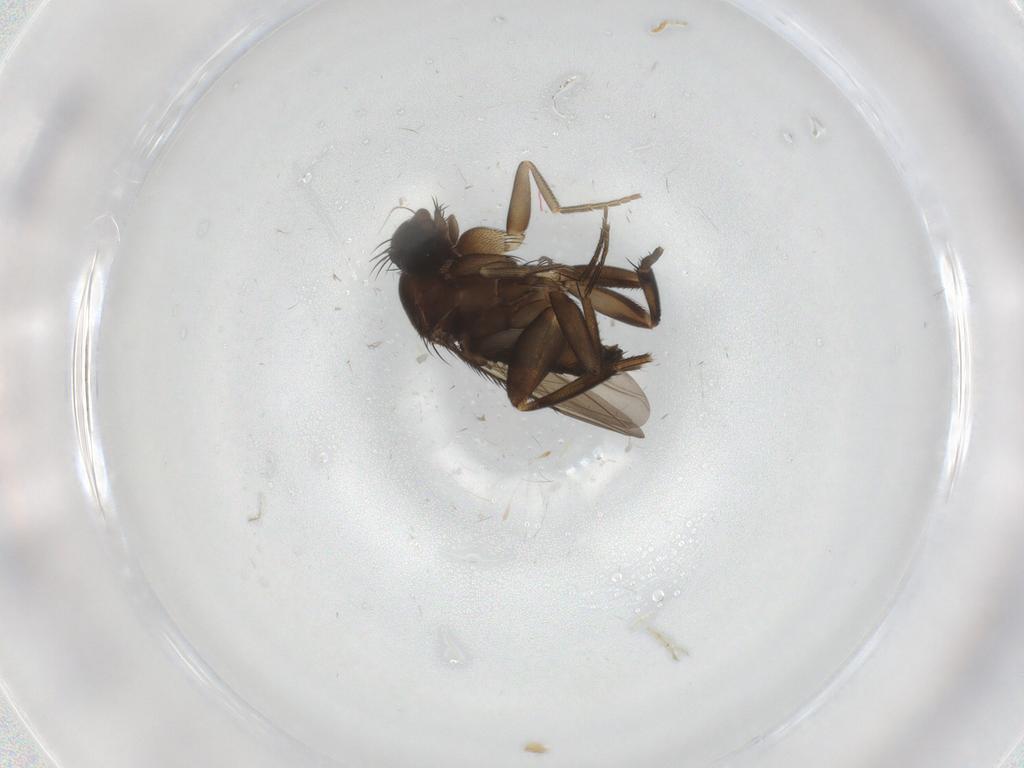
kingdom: Animalia
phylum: Arthropoda
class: Insecta
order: Diptera
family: Phoridae
